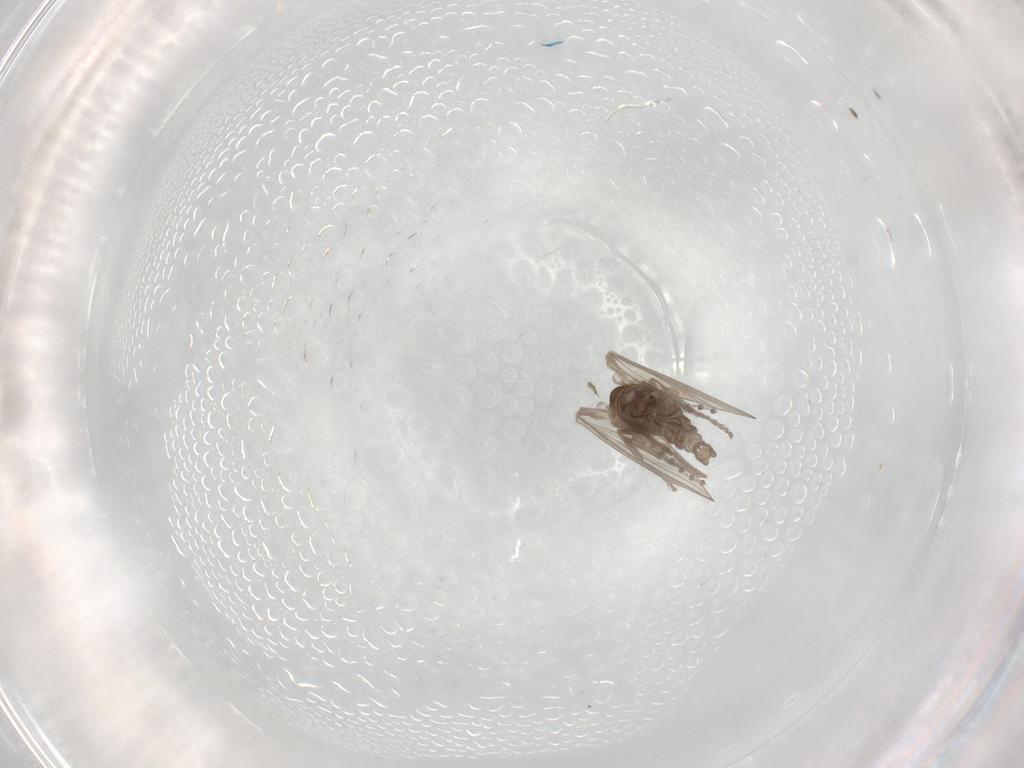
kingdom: Animalia
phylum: Arthropoda
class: Insecta
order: Diptera
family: Psychodidae
